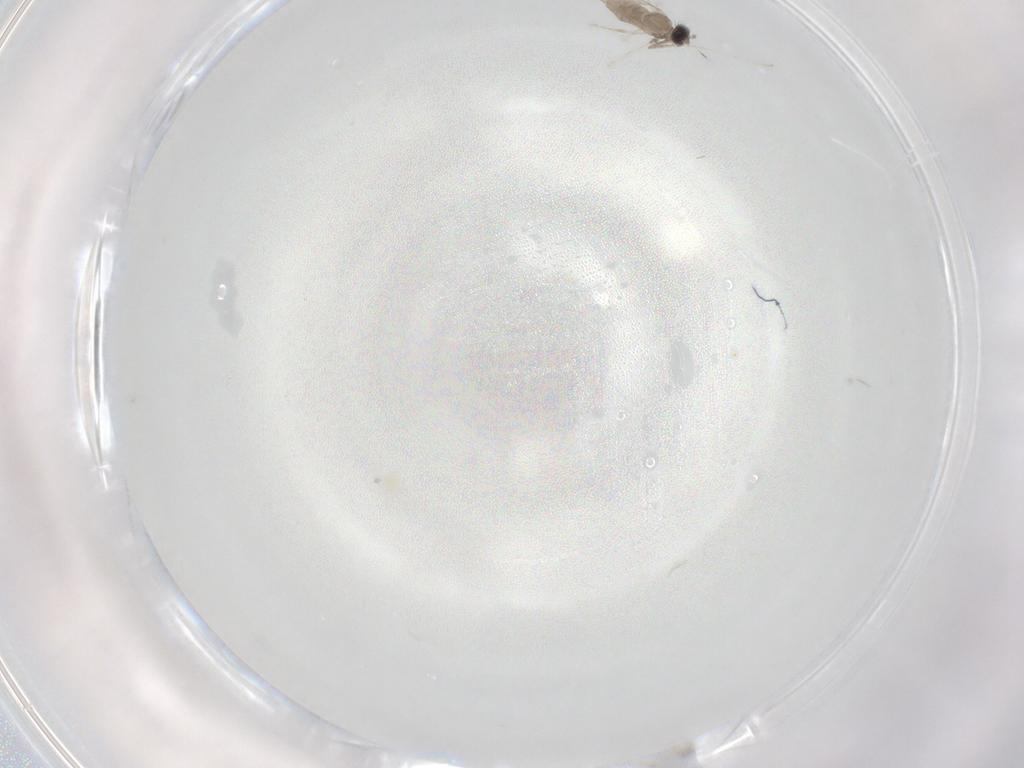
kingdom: Animalia
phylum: Arthropoda
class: Insecta
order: Diptera
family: Cecidomyiidae
